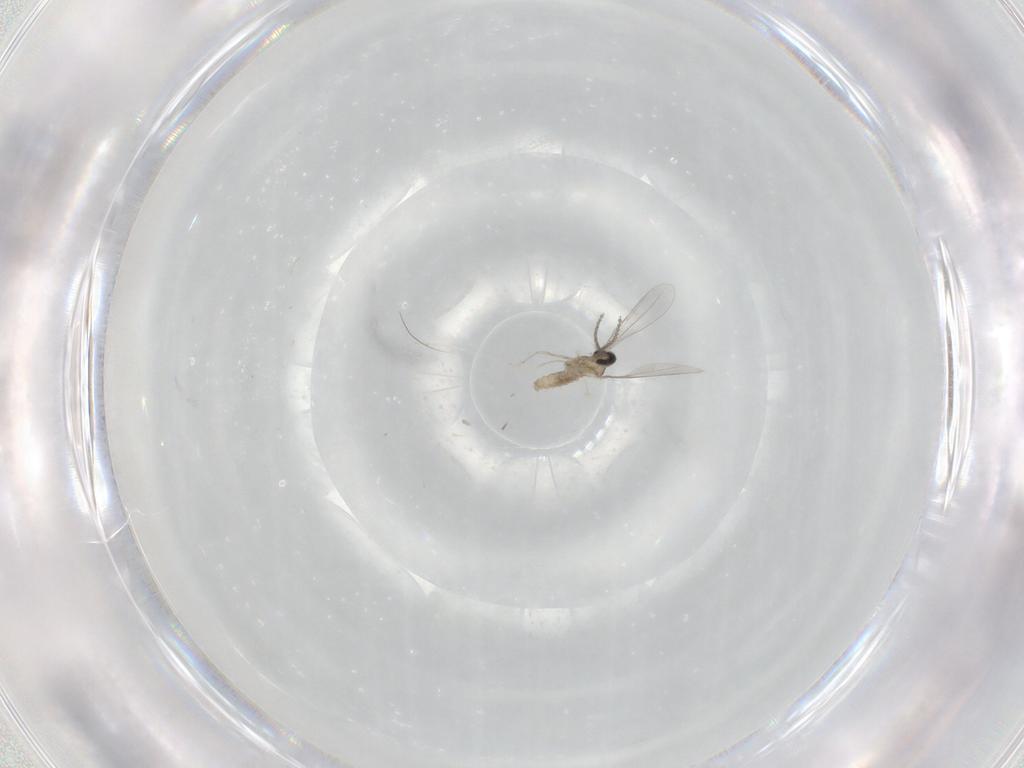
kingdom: Animalia
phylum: Arthropoda
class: Insecta
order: Diptera
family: Cecidomyiidae
